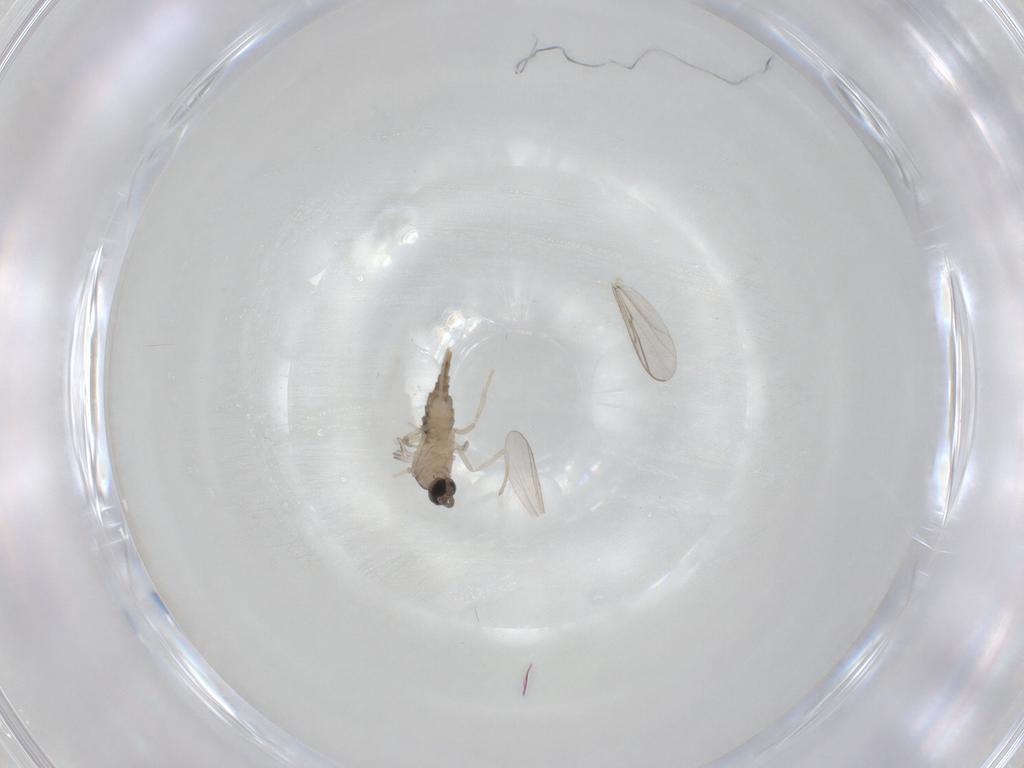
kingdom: Animalia
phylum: Arthropoda
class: Insecta
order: Diptera
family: Cecidomyiidae
